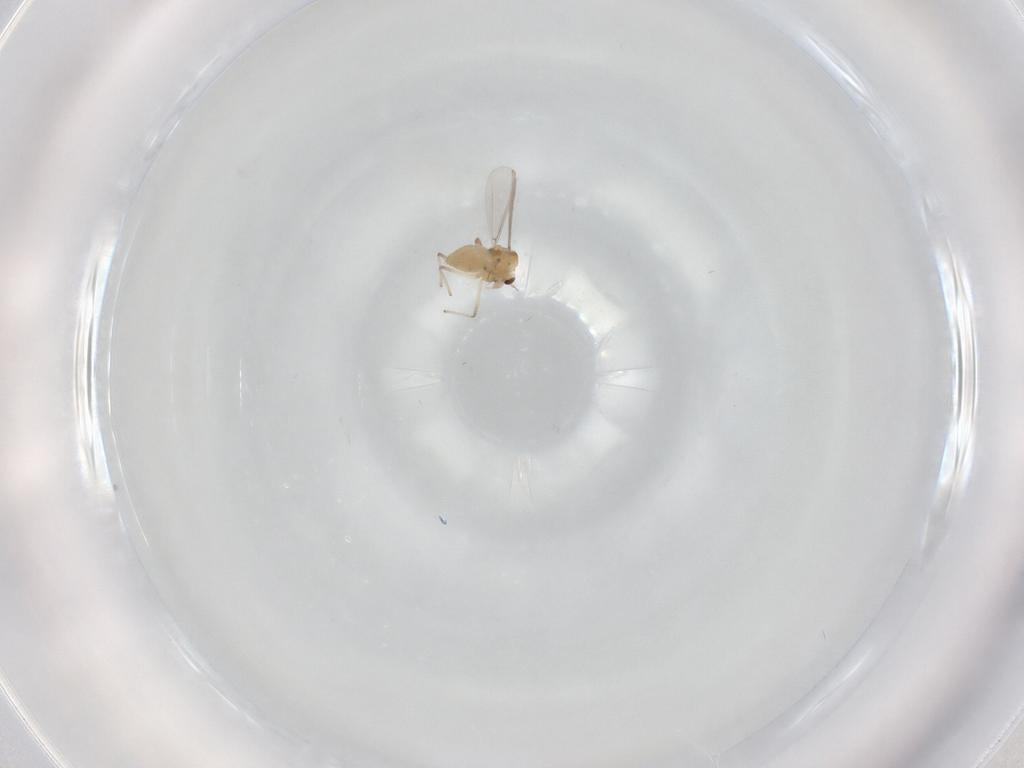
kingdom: Animalia
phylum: Arthropoda
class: Insecta
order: Diptera
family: Chironomidae
